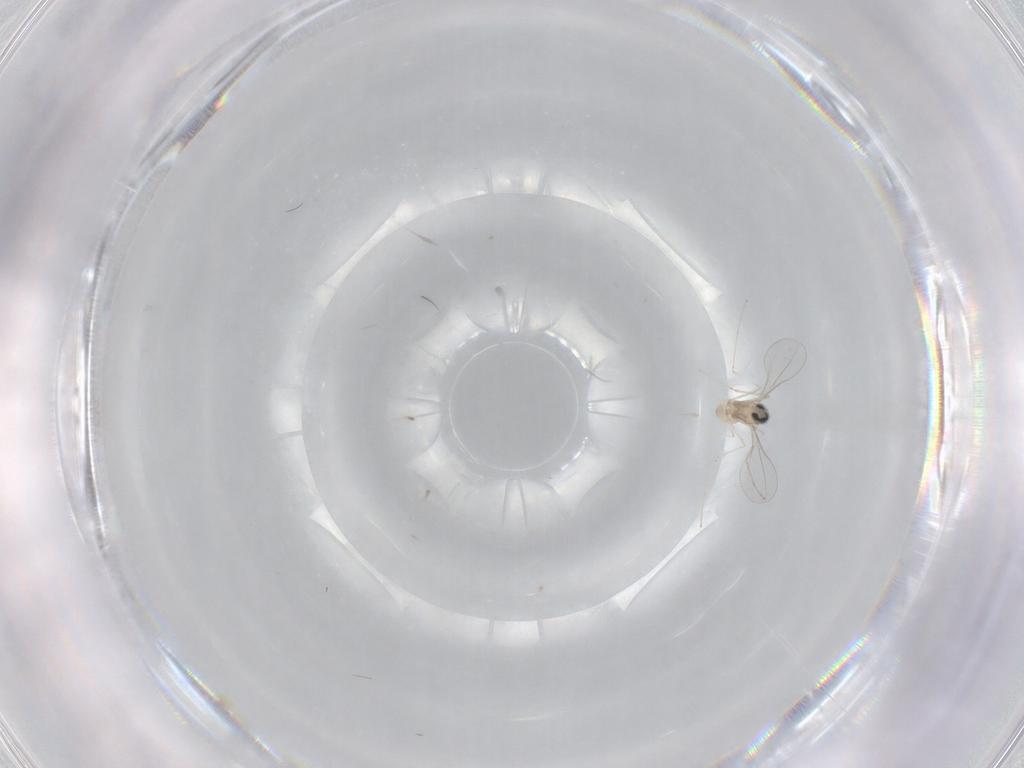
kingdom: Animalia
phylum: Arthropoda
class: Insecta
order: Diptera
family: Cecidomyiidae
